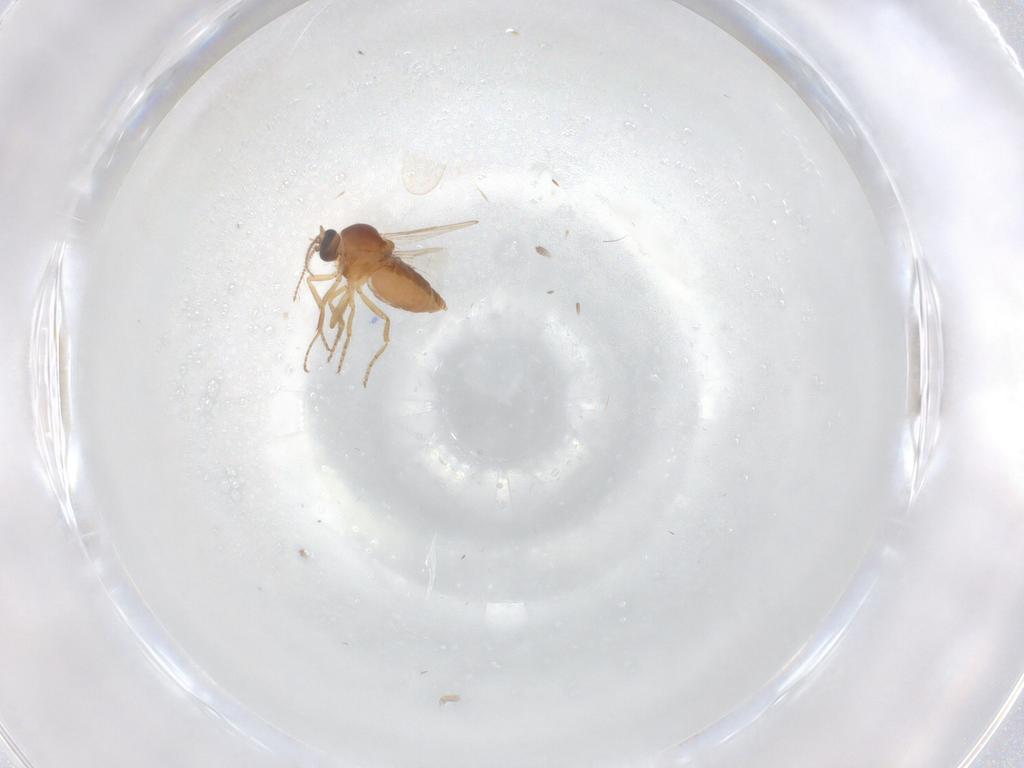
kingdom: Animalia
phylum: Arthropoda
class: Insecta
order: Diptera
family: Ceratopogonidae
